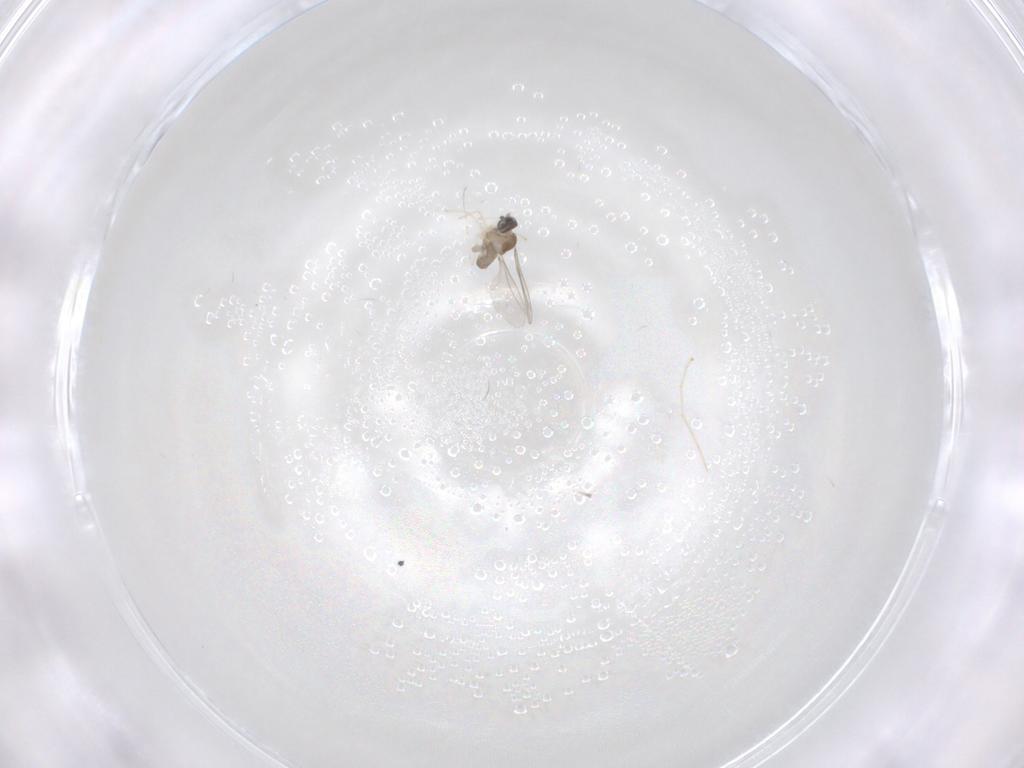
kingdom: Animalia
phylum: Arthropoda
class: Insecta
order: Diptera
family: Cecidomyiidae
